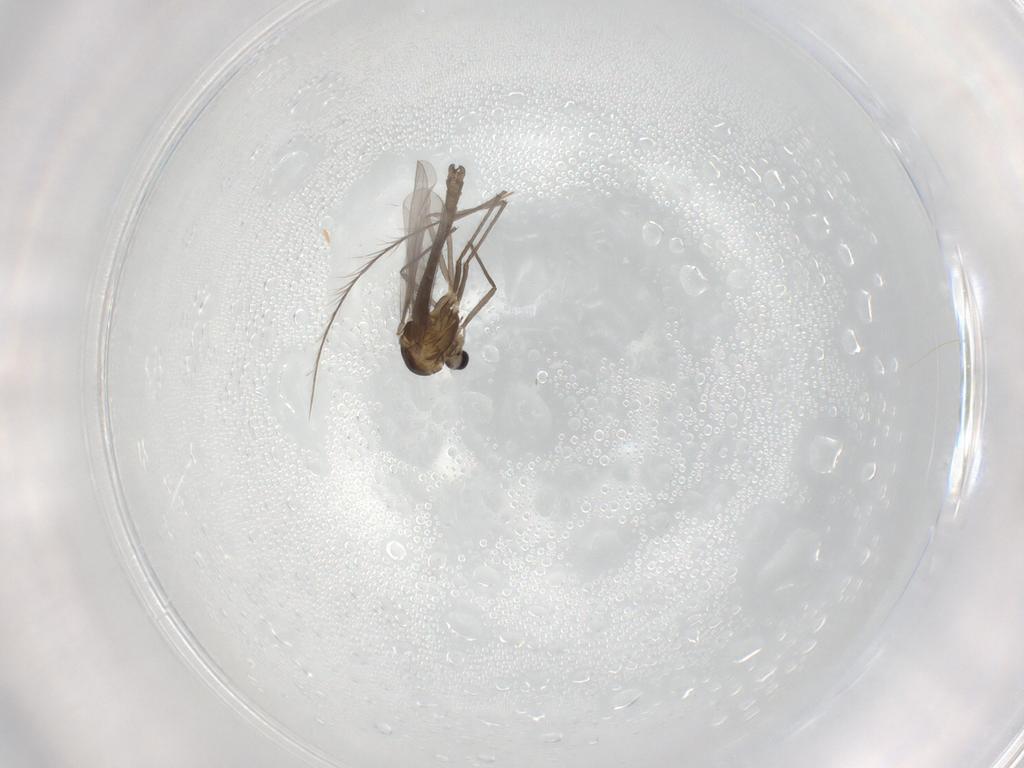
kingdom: Animalia
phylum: Arthropoda
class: Insecta
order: Diptera
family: Chironomidae
